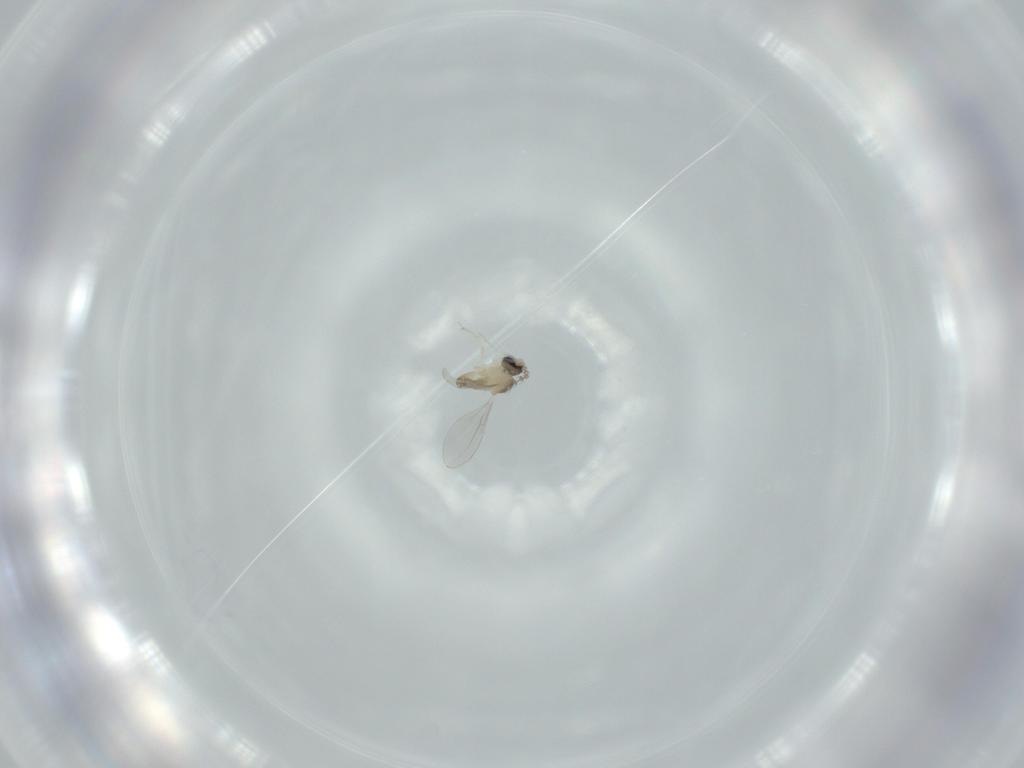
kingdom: Animalia
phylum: Arthropoda
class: Insecta
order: Diptera
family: Cecidomyiidae
